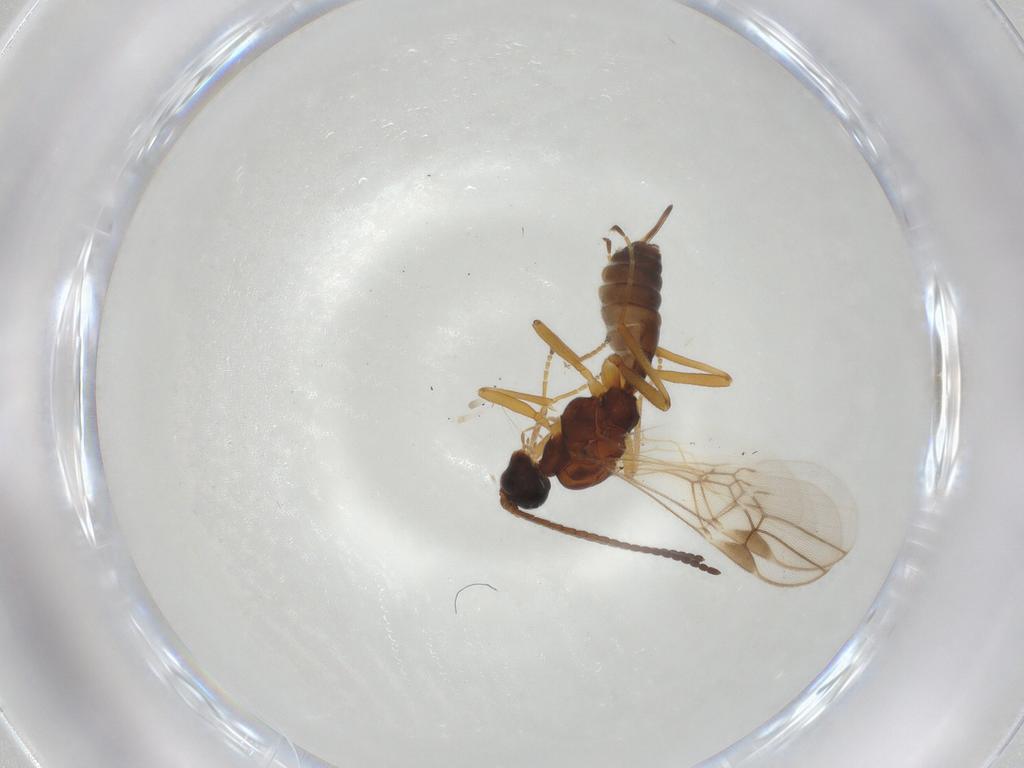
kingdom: Animalia
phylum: Arthropoda
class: Insecta
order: Hymenoptera
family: Braconidae
